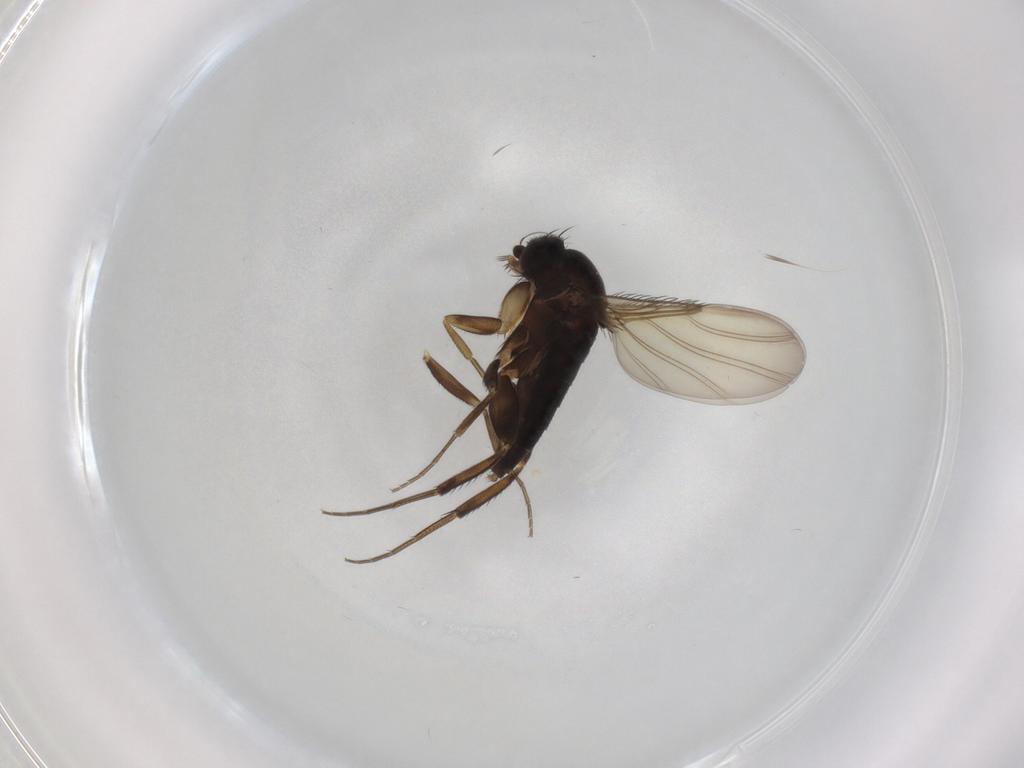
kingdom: Animalia
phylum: Arthropoda
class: Insecta
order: Diptera
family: Phoridae
